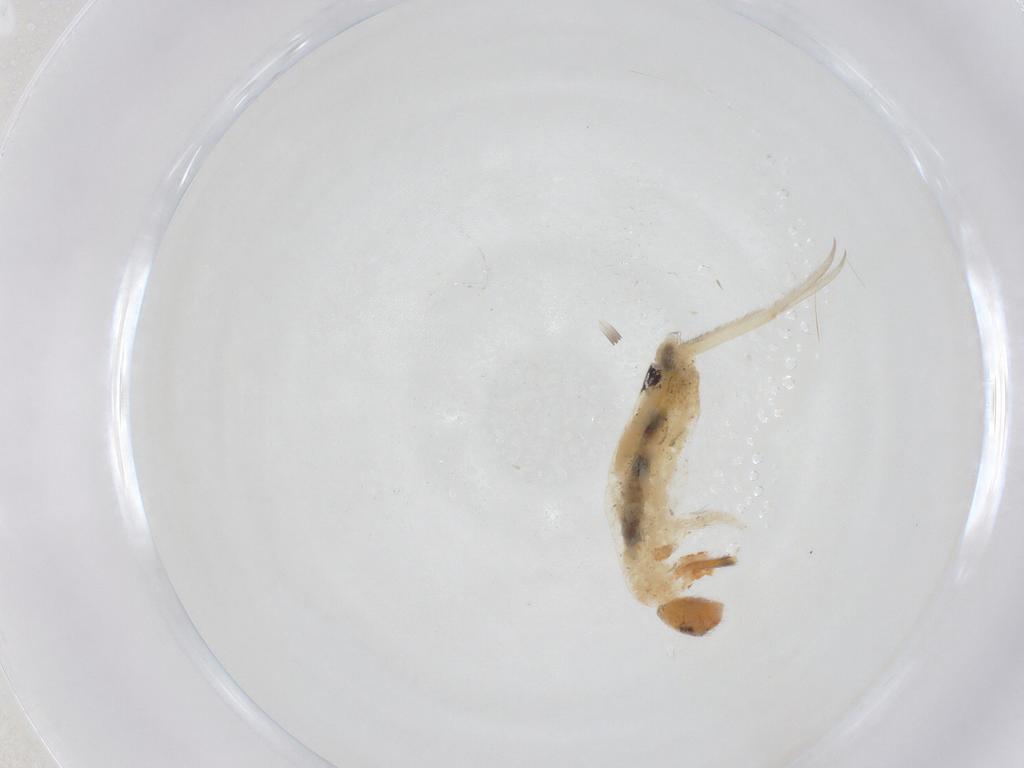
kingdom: Animalia
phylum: Arthropoda
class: Collembola
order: Entomobryomorpha
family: Entomobryidae
